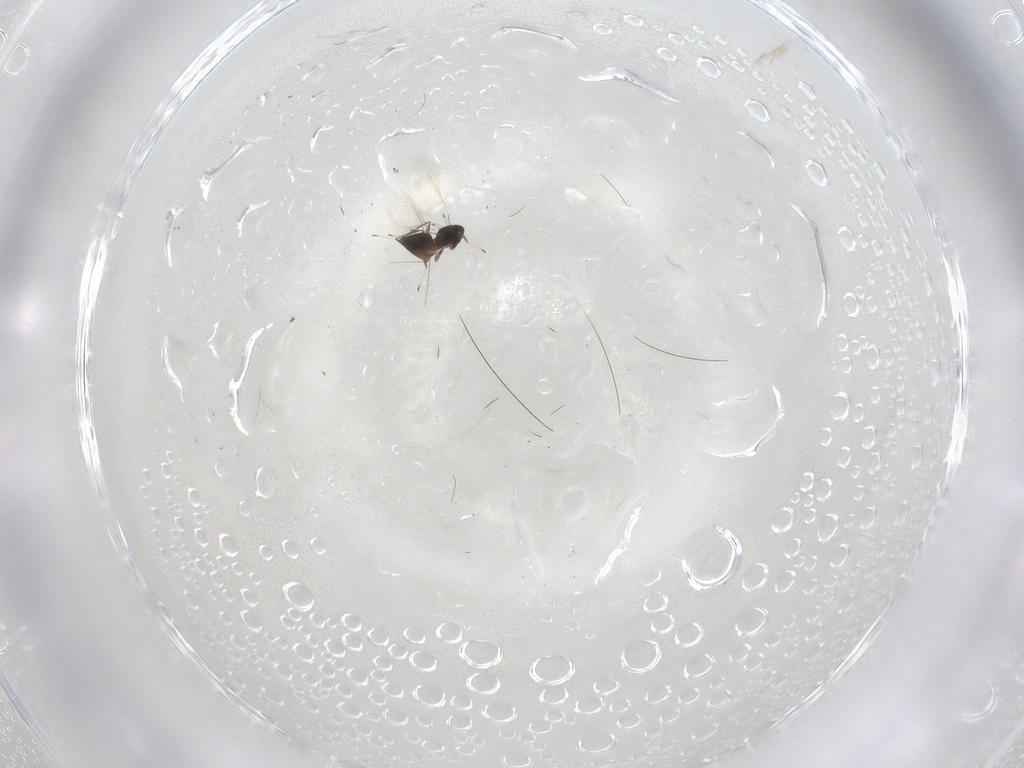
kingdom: Animalia
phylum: Arthropoda
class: Insecta
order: Hymenoptera
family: Mymaridae
